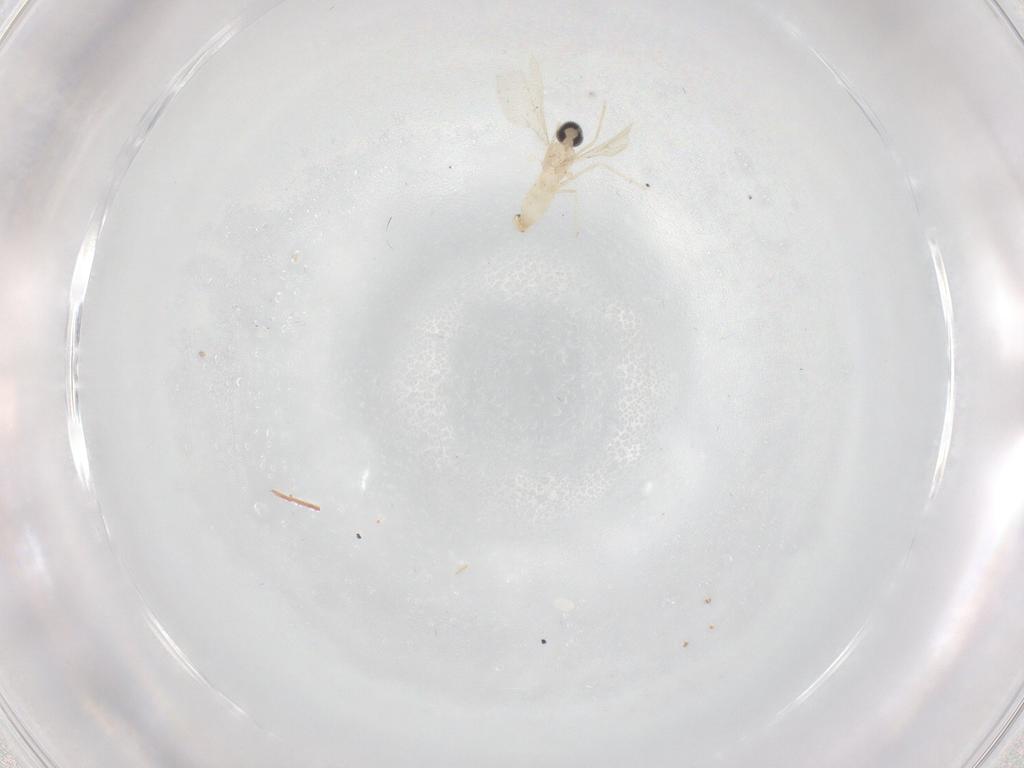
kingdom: Animalia
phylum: Arthropoda
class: Insecta
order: Diptera
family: Cecidomyiidae
